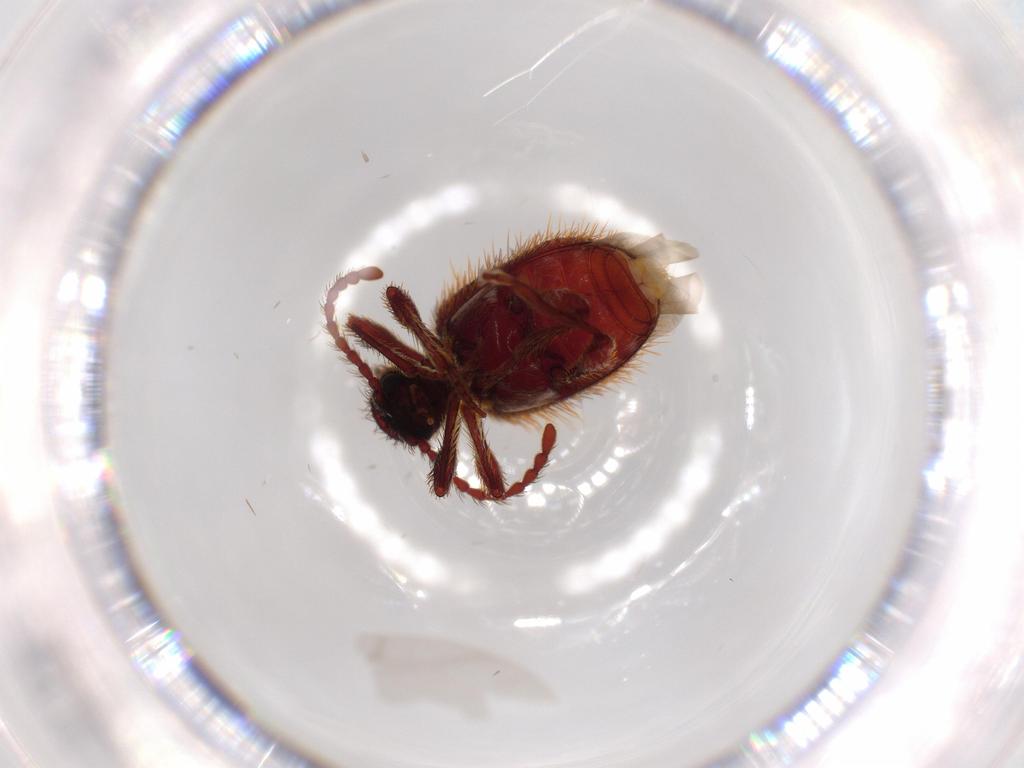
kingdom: Animalia
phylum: Arthropoda
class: Insecta
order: Coleoptera
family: Ptinidae
